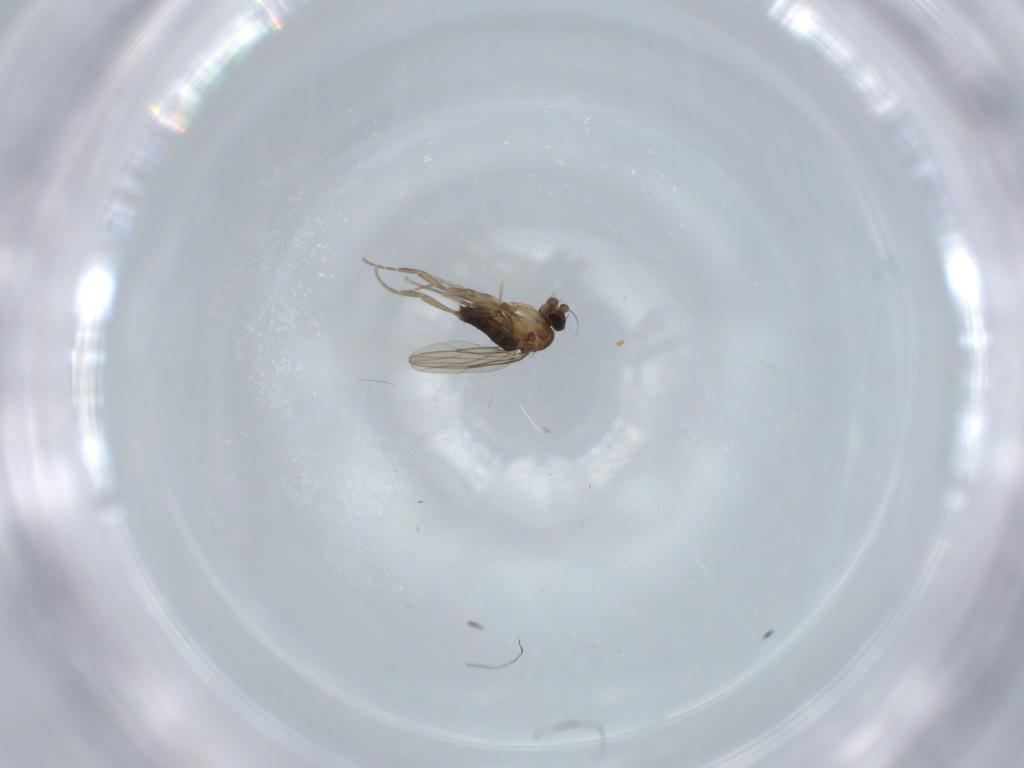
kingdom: Animalia
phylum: Arthropoda
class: Insecta
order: Diptera
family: Phoridae
